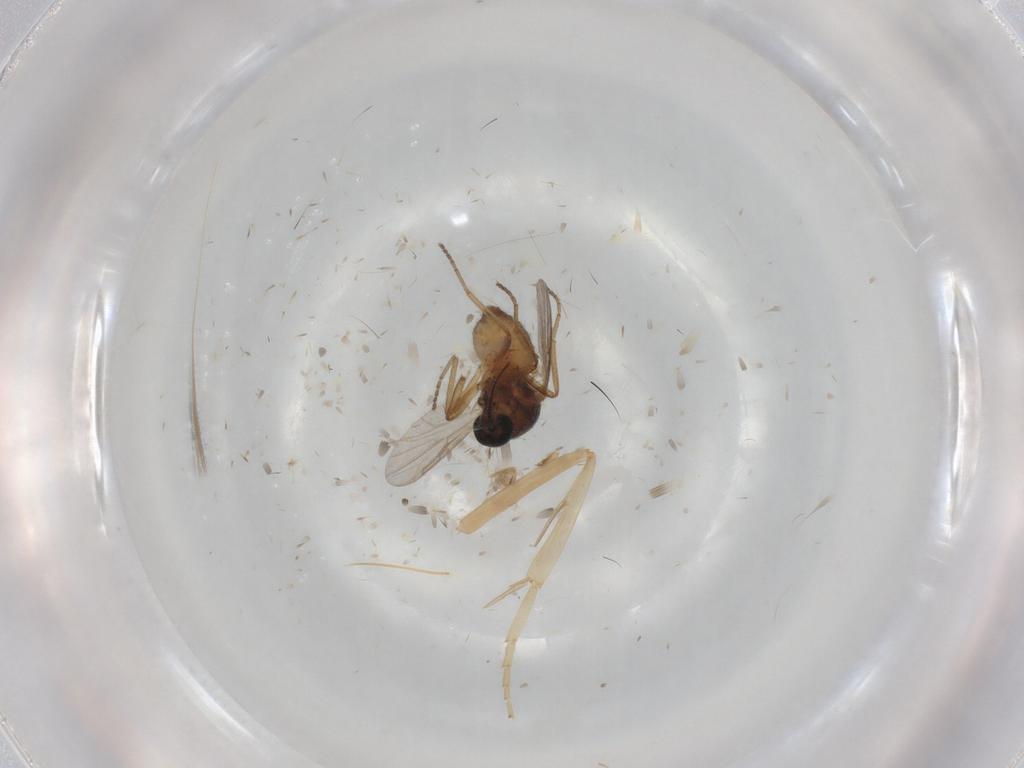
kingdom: Animalia
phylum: Arthropoda
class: Insecta
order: Diptera
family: Ceratopogonidae
